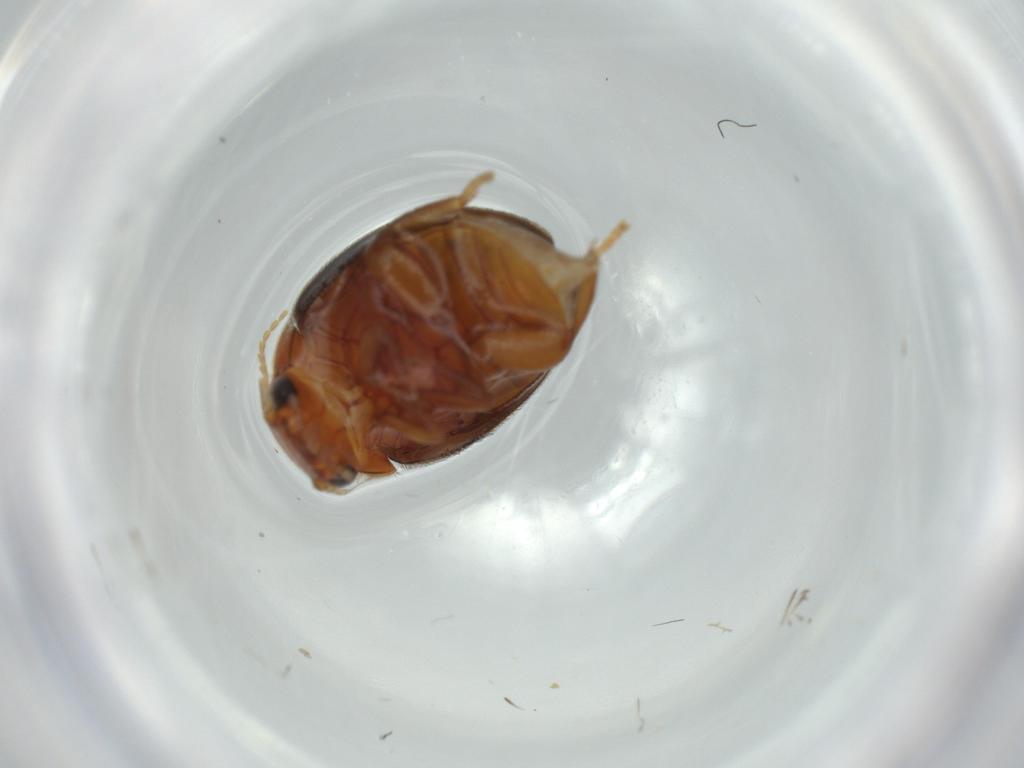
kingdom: Animalia
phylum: Arthropoda
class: Insecta
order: Coleoptera
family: Scirtidae
